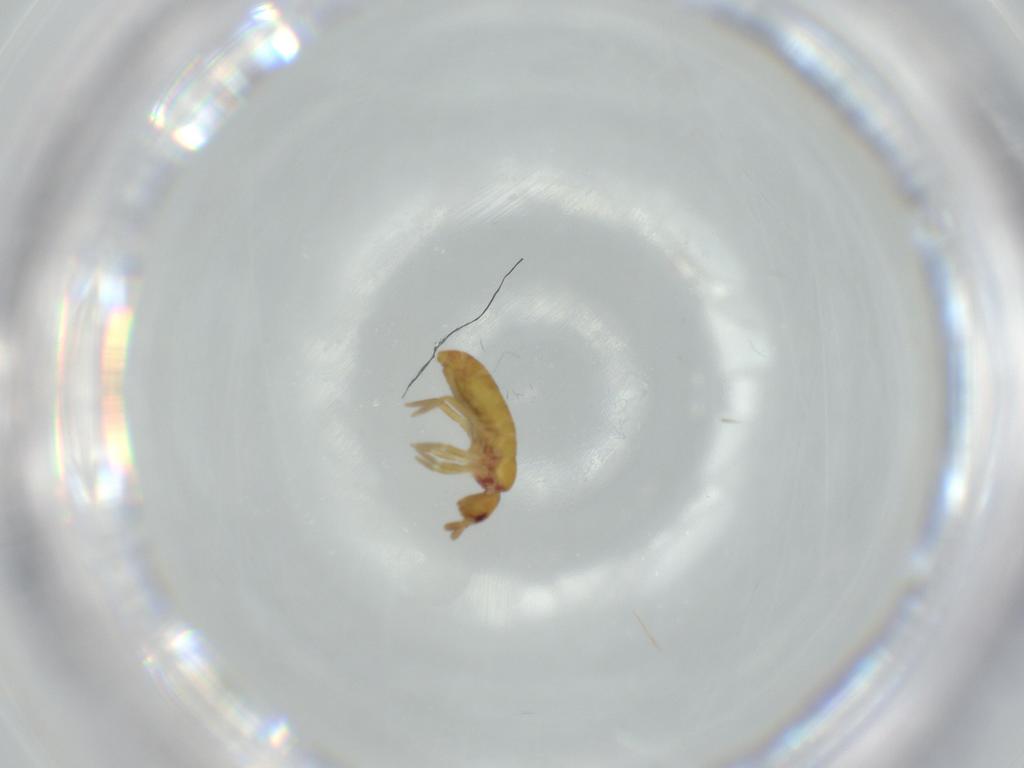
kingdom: Animalia
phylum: Arthropoda
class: Collembola
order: Entomobryomorpha
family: Tomoceridae
